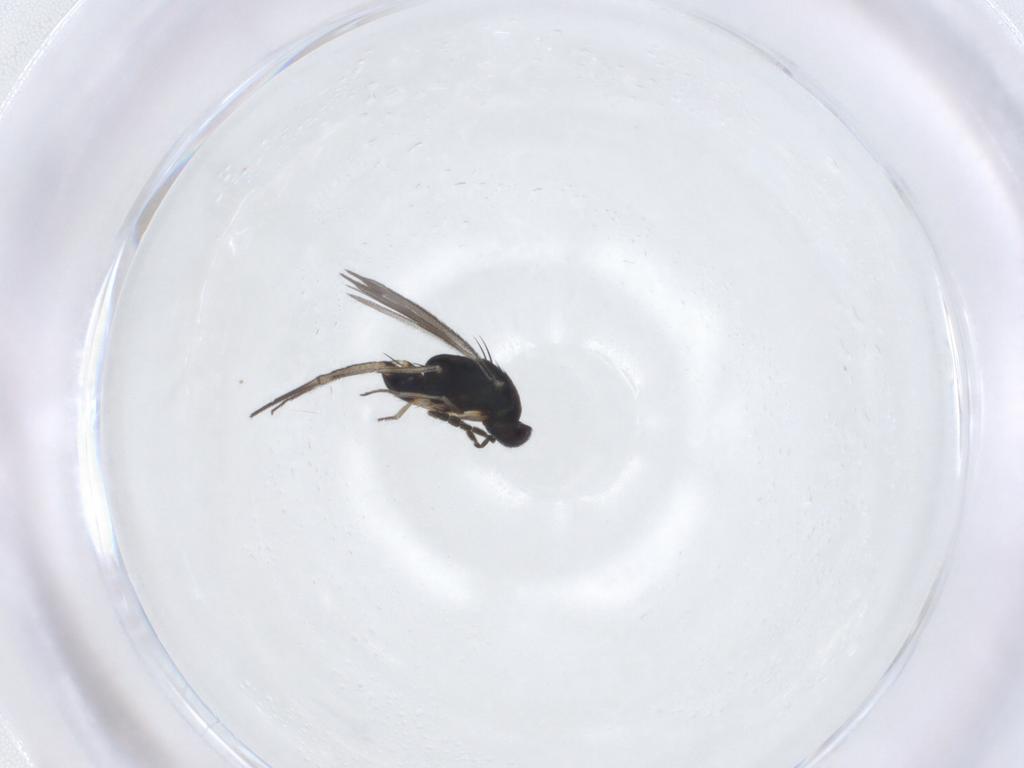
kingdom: Animalia
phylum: Arthropoda
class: Insecta
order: Hymenoptera
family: Eulophidae
